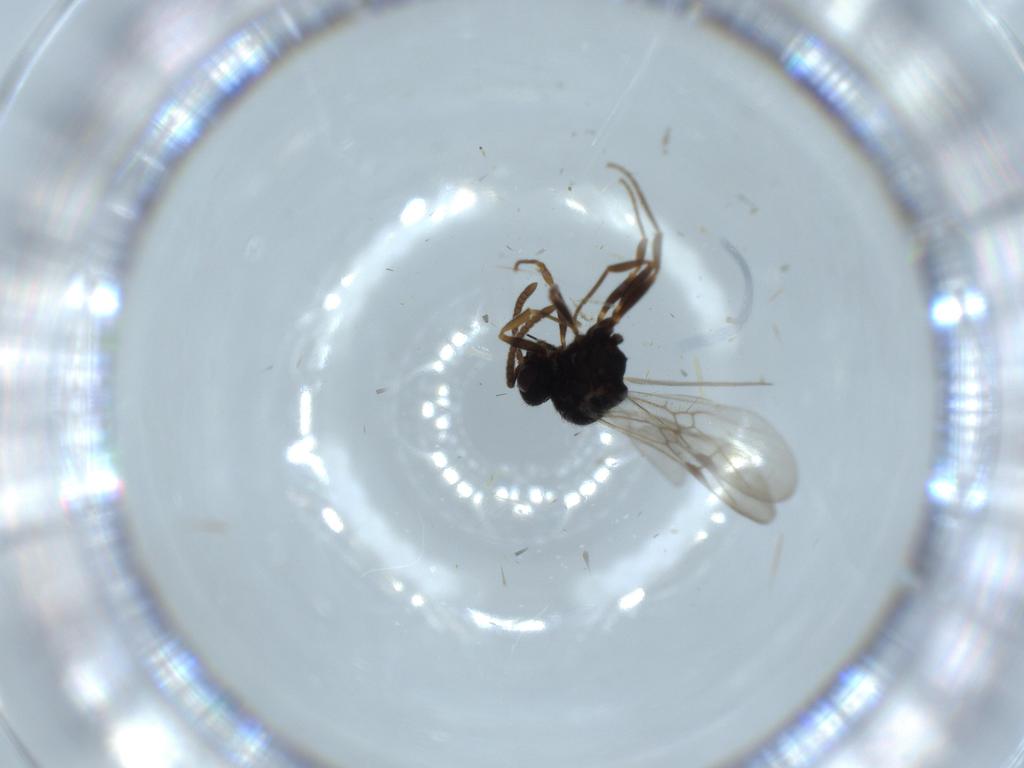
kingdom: Animalia
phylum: Arthropoda
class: Insecta
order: Hymenoptera
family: Formicidae
